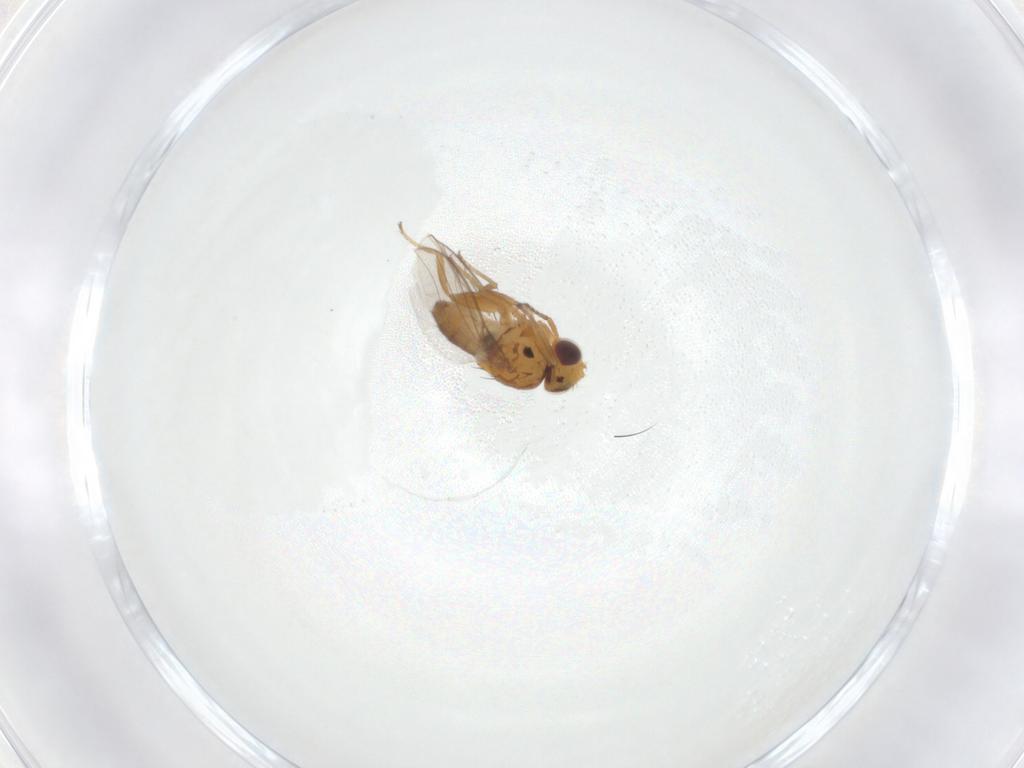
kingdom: Animalia
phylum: Arthropoda
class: Insecta
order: Diptera
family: Chloropidae
